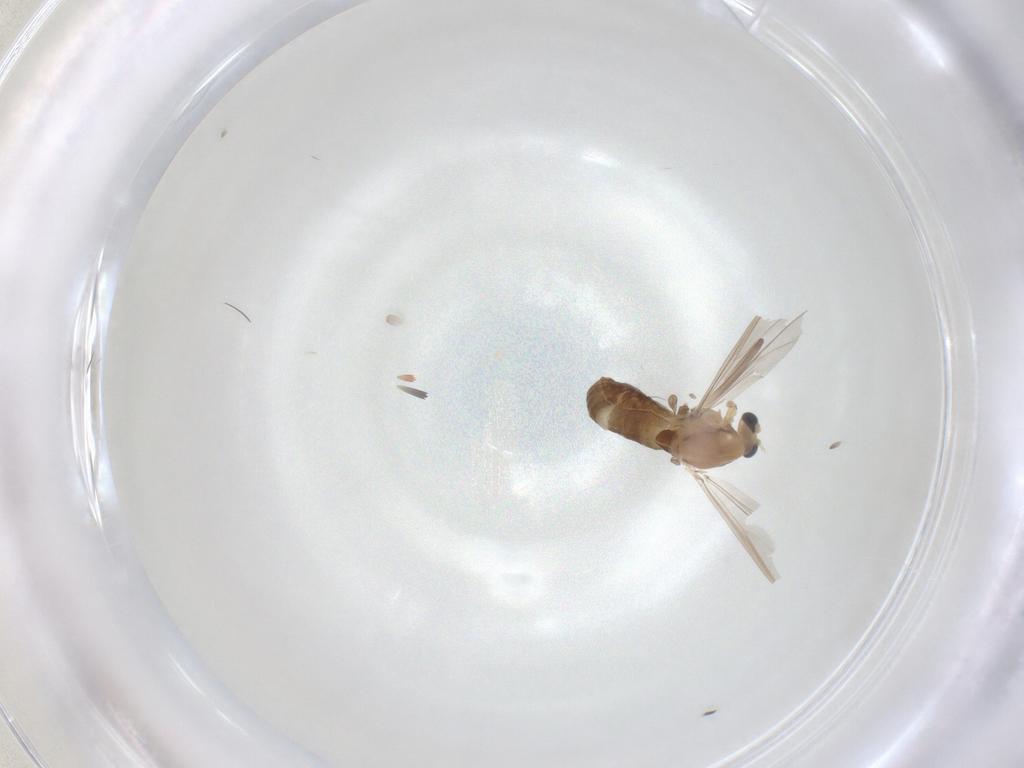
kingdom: Animalia
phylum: Arthropoda
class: Insecta
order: Diptera
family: Chironomidae
